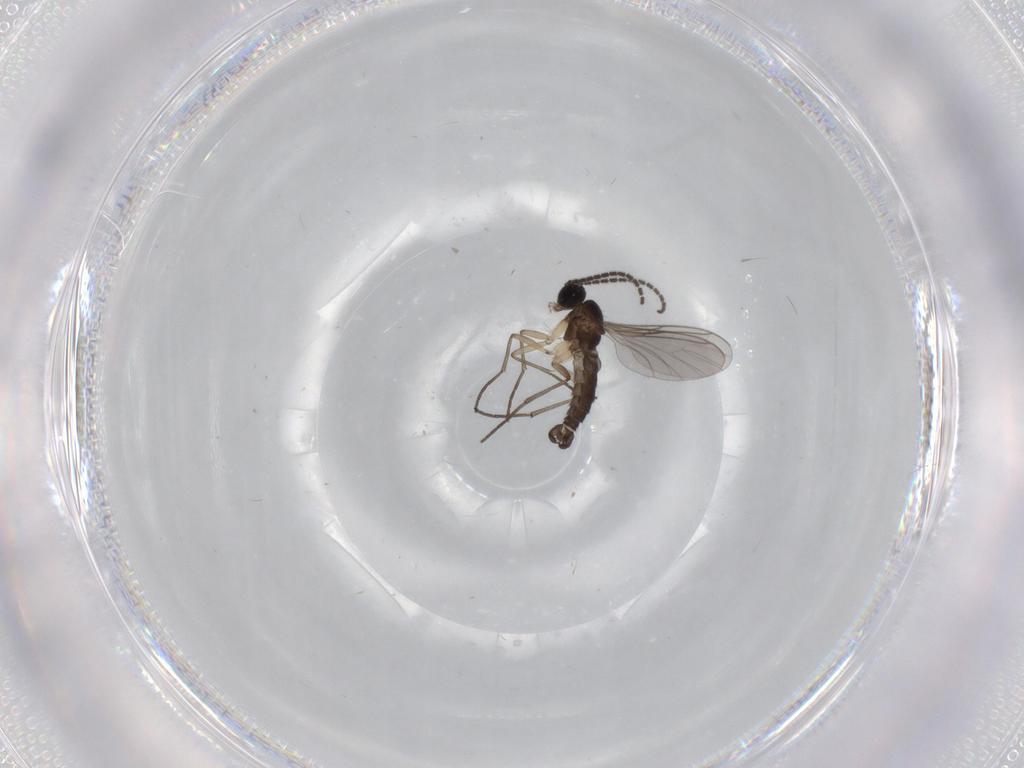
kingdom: Animalia
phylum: Arthropoda
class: Insecta
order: Diptera
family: Sciaridae
